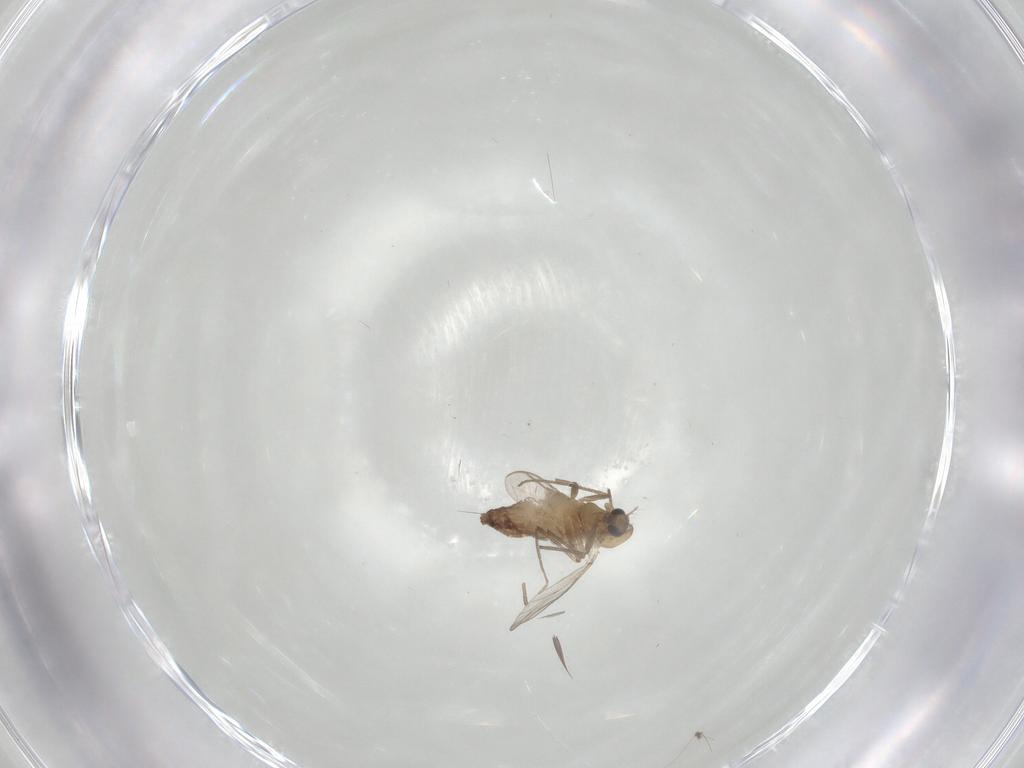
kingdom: Animalia
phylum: Arthropoda
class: Insecta
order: Diptera
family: Chironomidae
